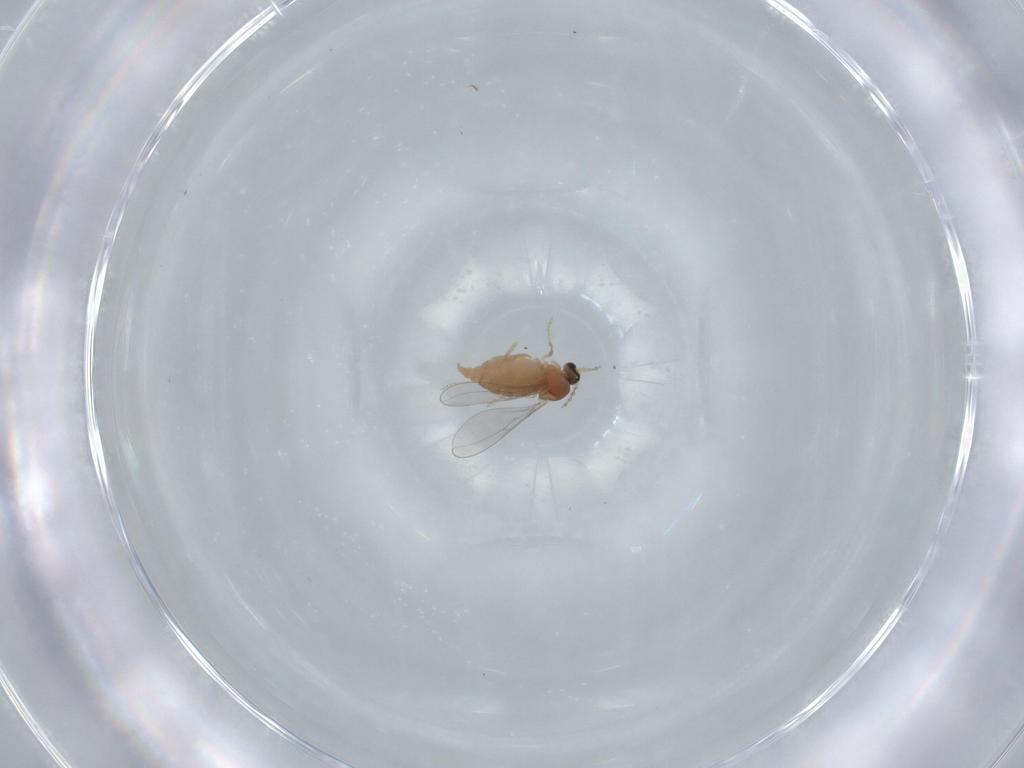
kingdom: Animalia
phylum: Arthropoda
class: Insecta
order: Diptera
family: Cecidomyiidae
